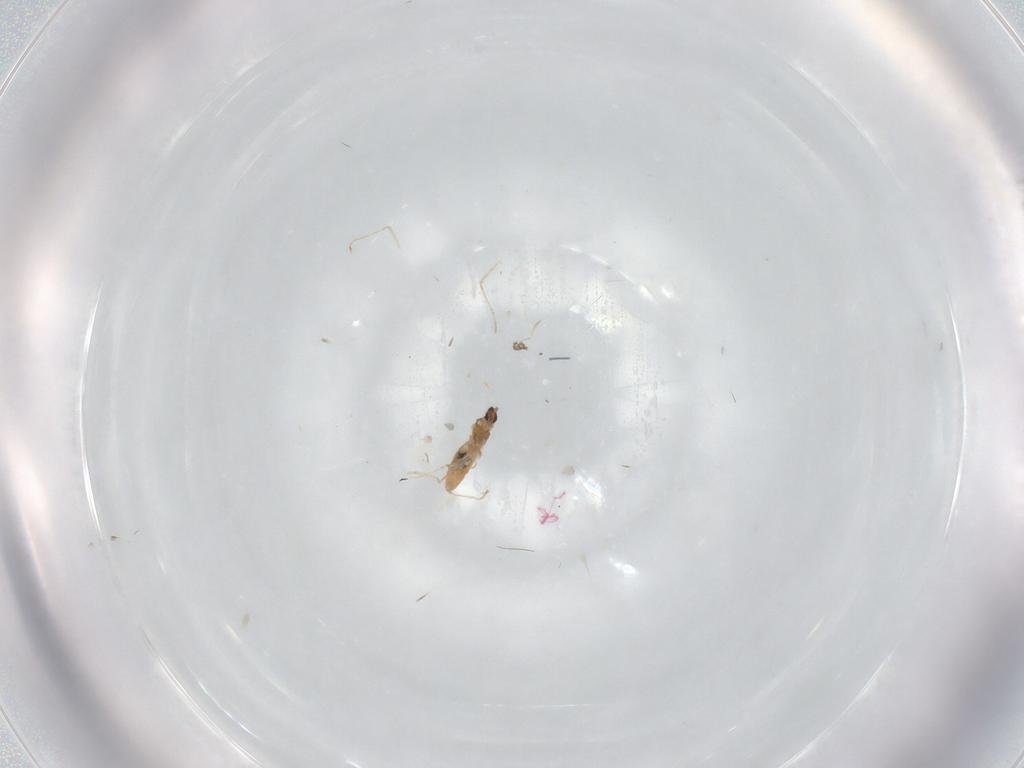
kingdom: Animalia
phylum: Arthropoda
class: Insecta
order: Diptera
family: Cecidomyiidae
